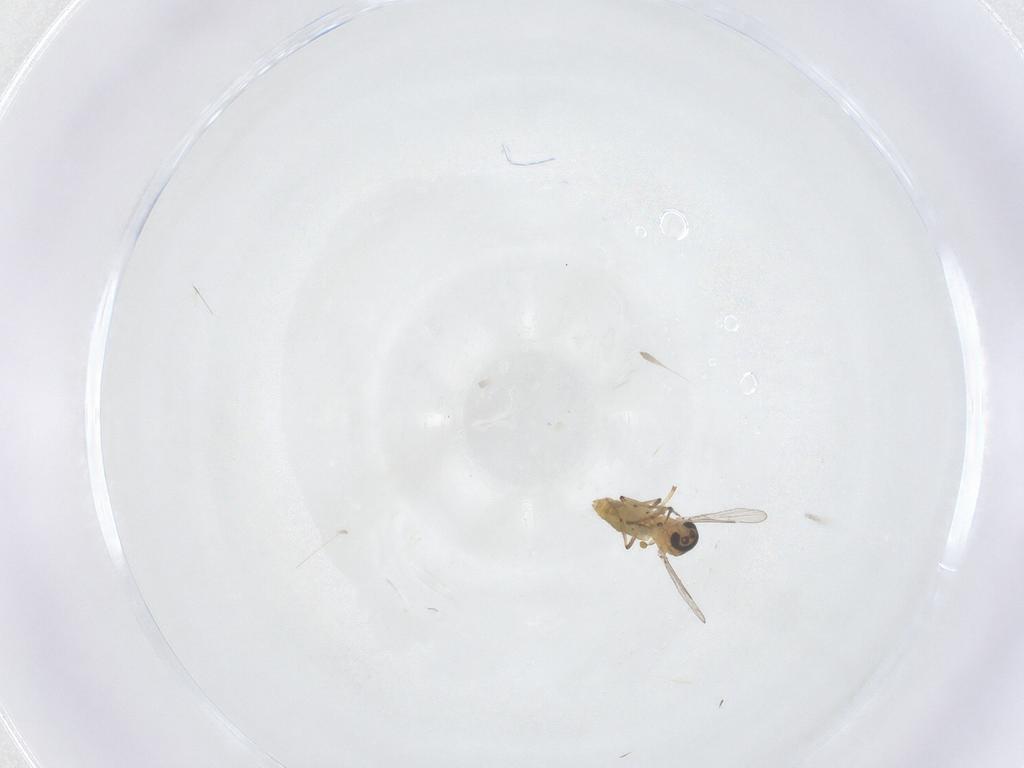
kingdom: Animalia
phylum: Arthropoda
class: Insecta
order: Diptera
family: Ceratopogonidae
